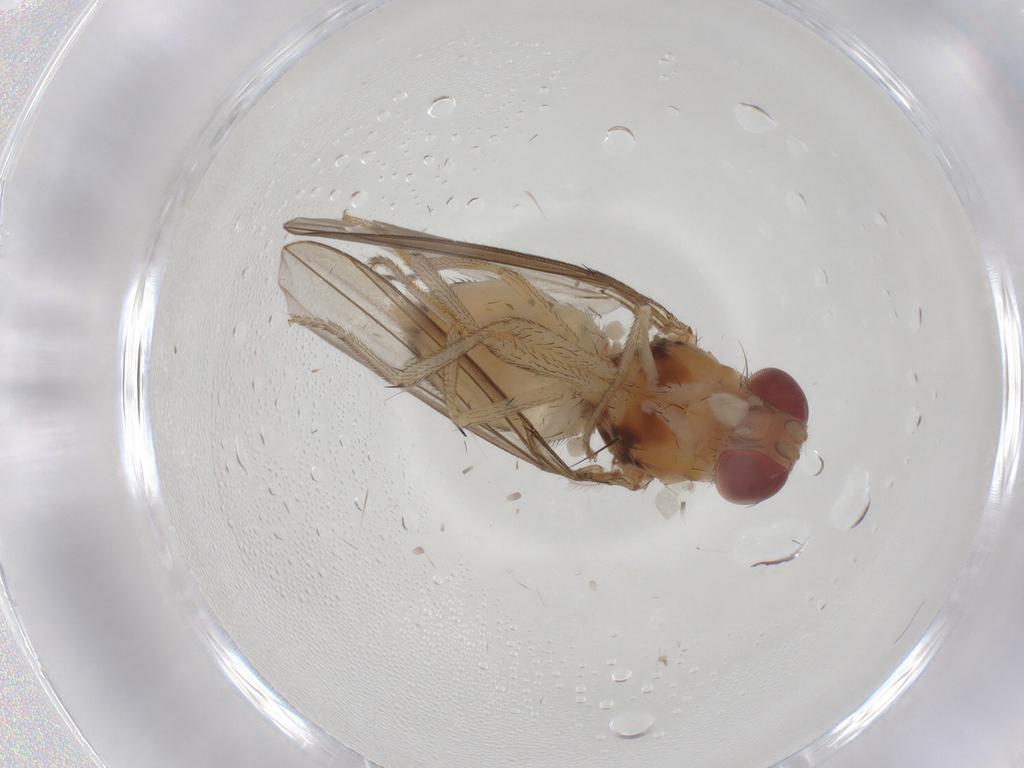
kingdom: Animalia
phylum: Arthropoda
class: Insecta
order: Diptera
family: Drosophilidae
